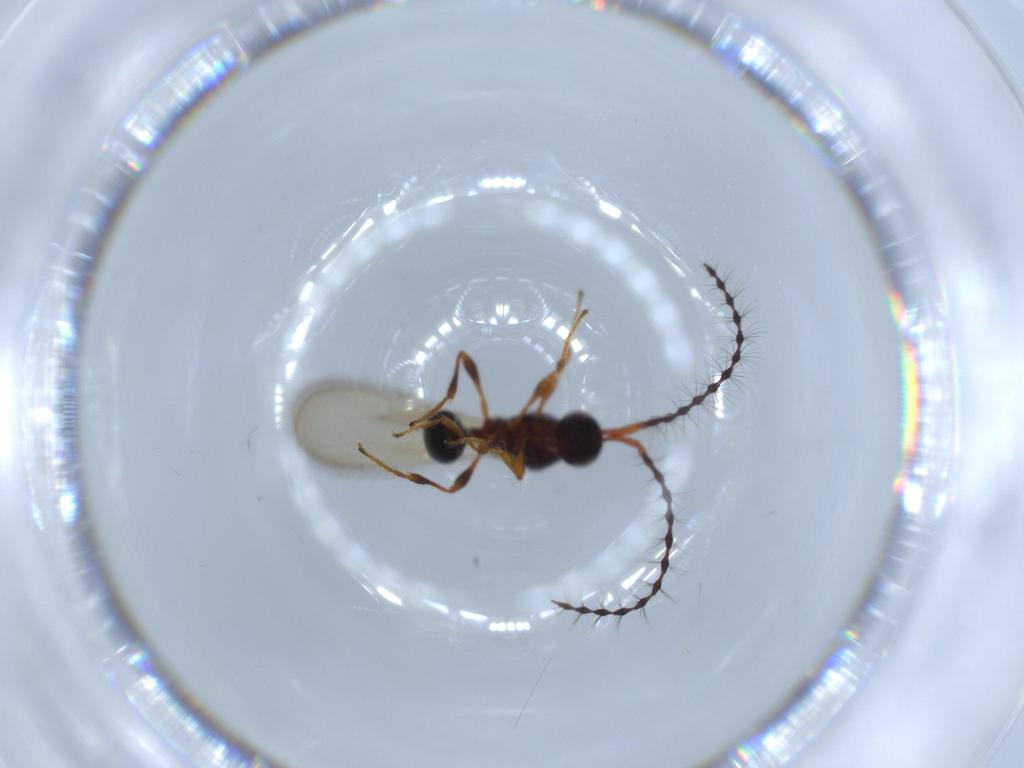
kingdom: Animalia
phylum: Arthropoda
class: Insecta
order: Hymenoptera
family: Diapriidae
